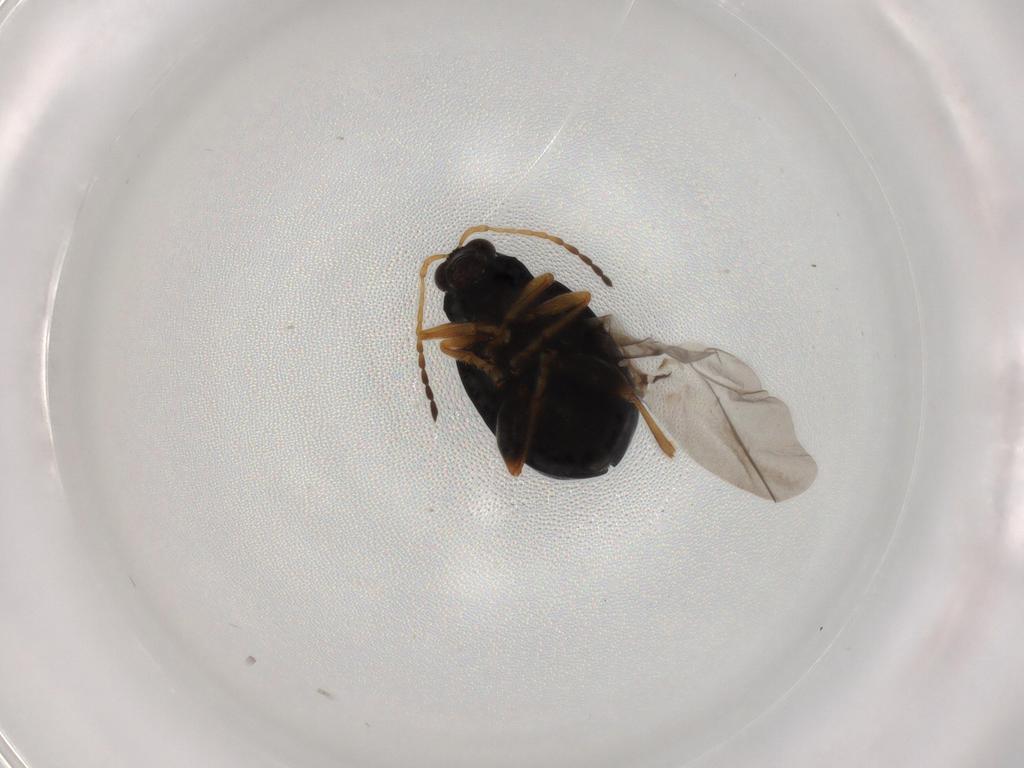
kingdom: Animalia
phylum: Arthropoda
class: Insecta
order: Coleoptera
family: Chrysomelidae
